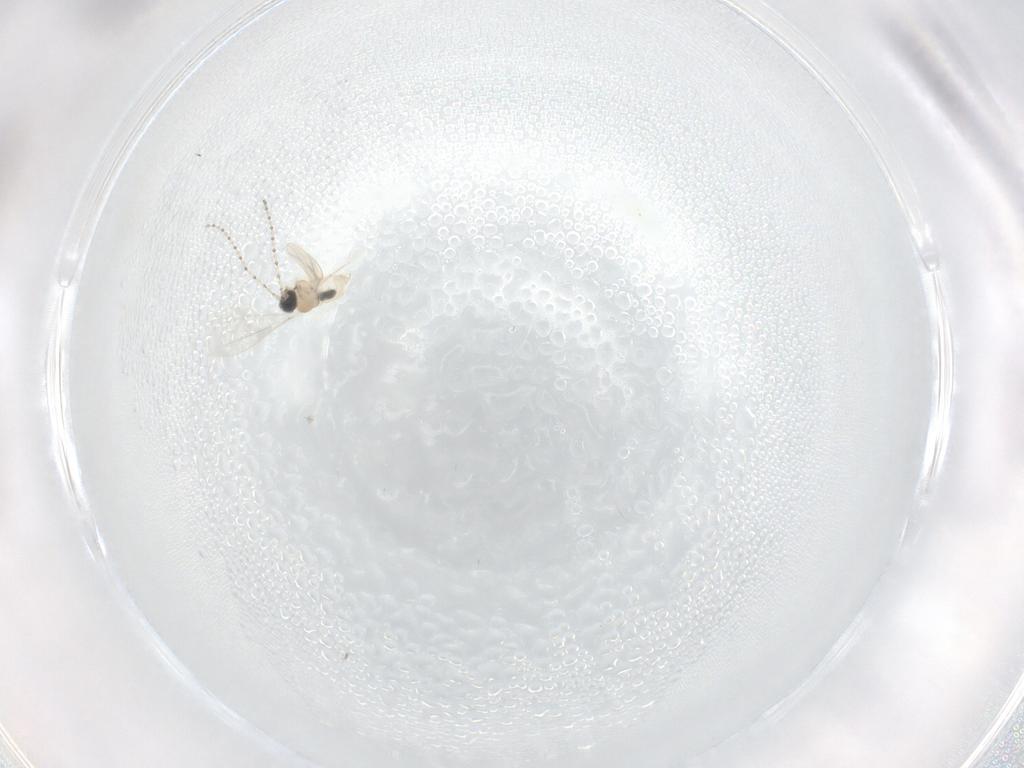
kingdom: Animalia
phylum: Arthropoda
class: Insecta
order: Diptera
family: Chironomidae
